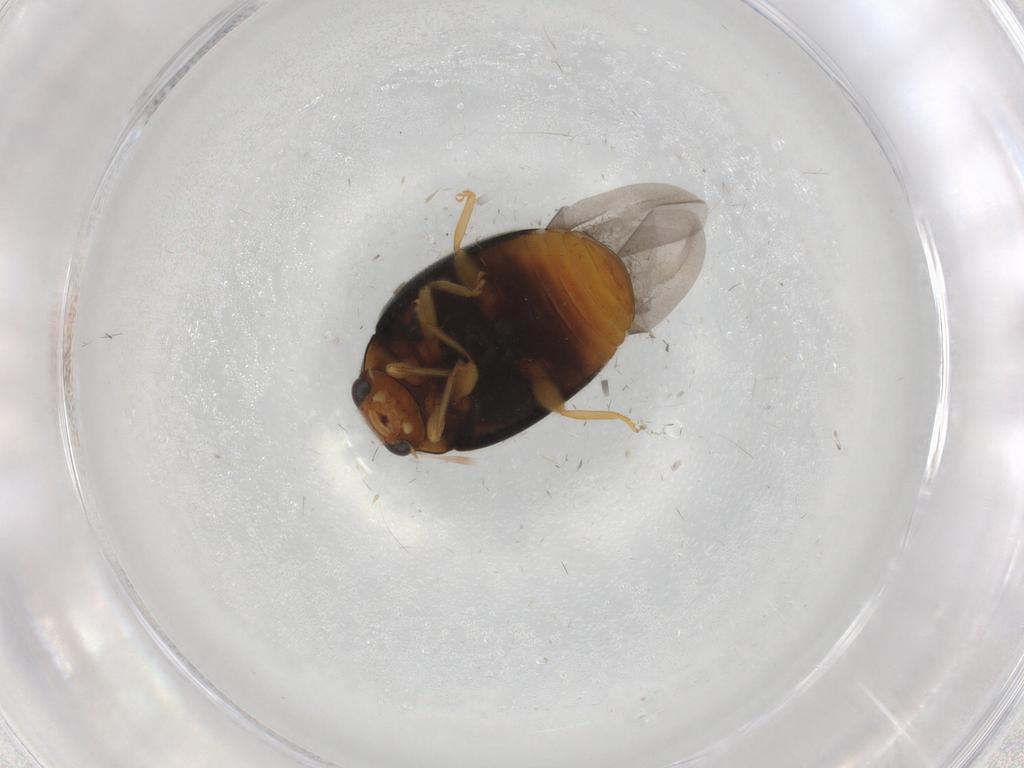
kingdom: Animalia
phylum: Arthropoda
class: Insecta
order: Coleoptera
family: Coccinellidae
